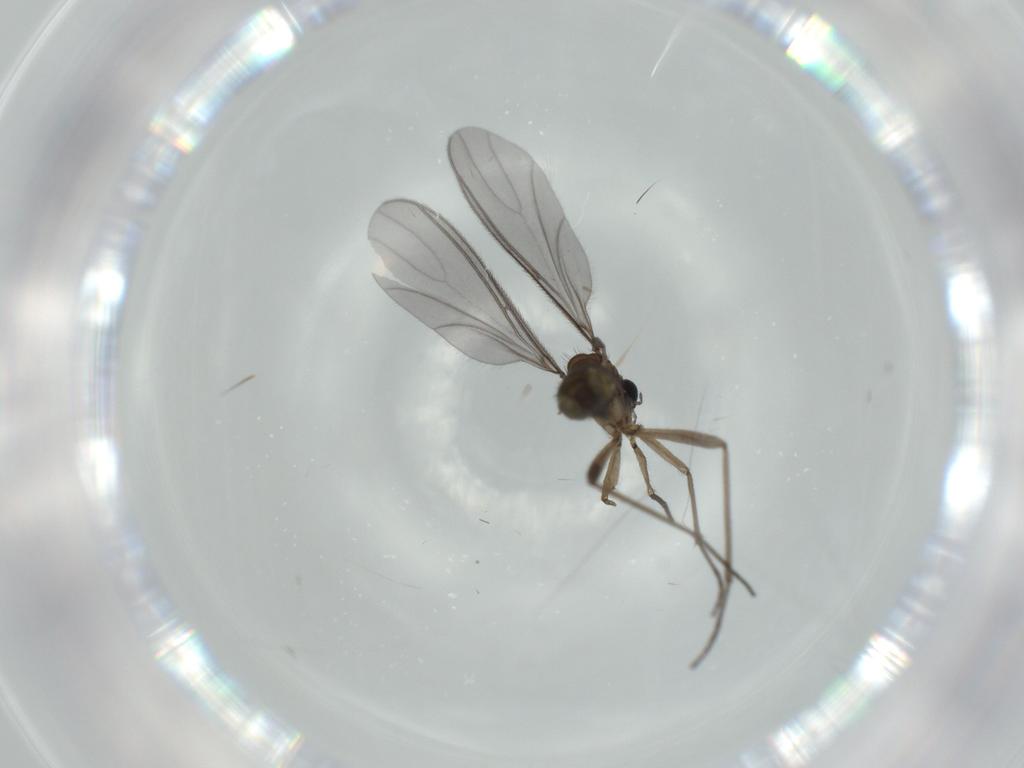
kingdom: Animalia
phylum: Arthropoda
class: Insecta
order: Diptera
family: Sciaridae
